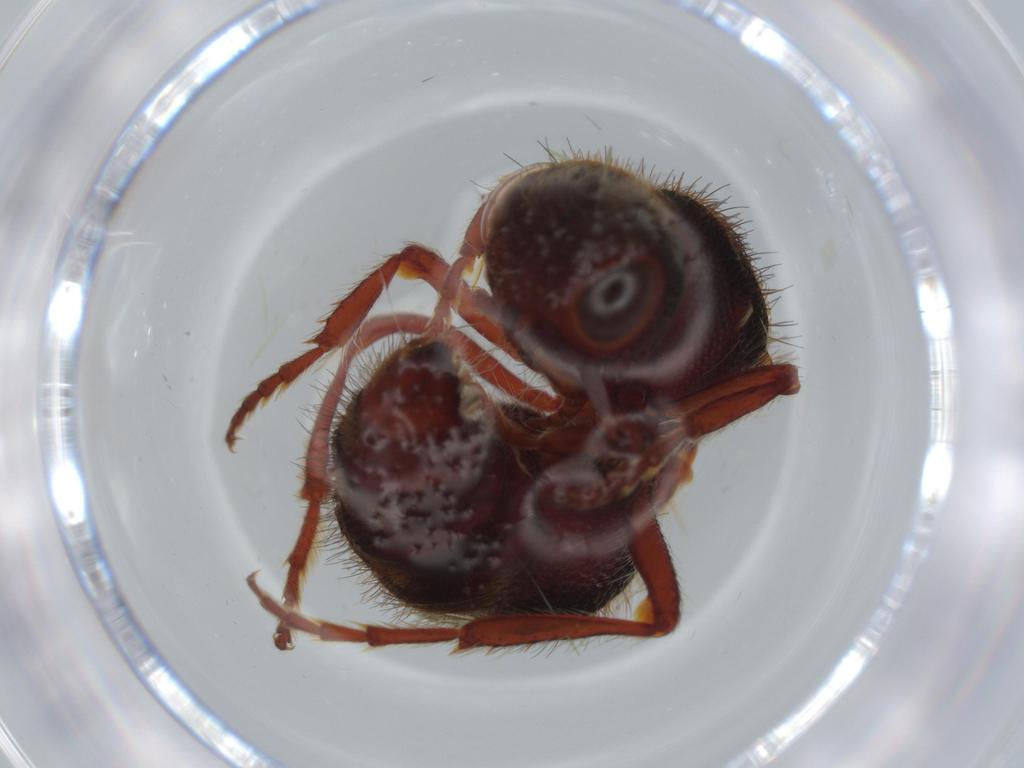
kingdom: Animalia
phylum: Arthropoda
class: Insecta
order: Hymenoptera
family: Pompilidae
